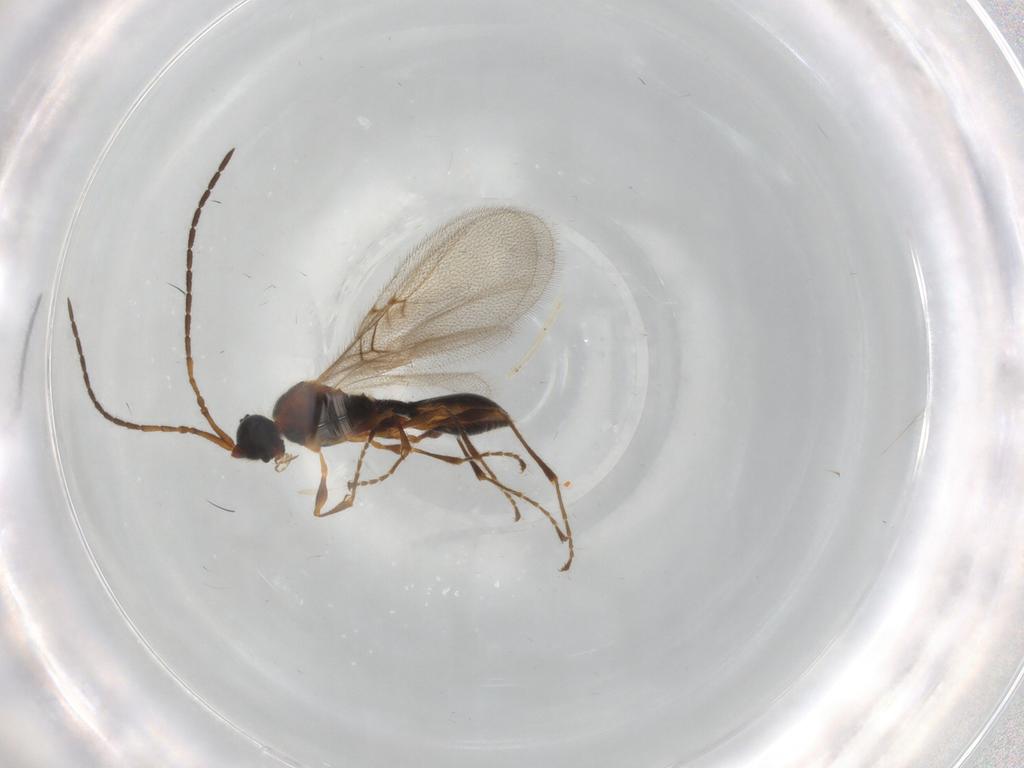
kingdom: Animalia
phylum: Arthropoda
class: Insecta
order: Hymenoptera
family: Diapriidae
